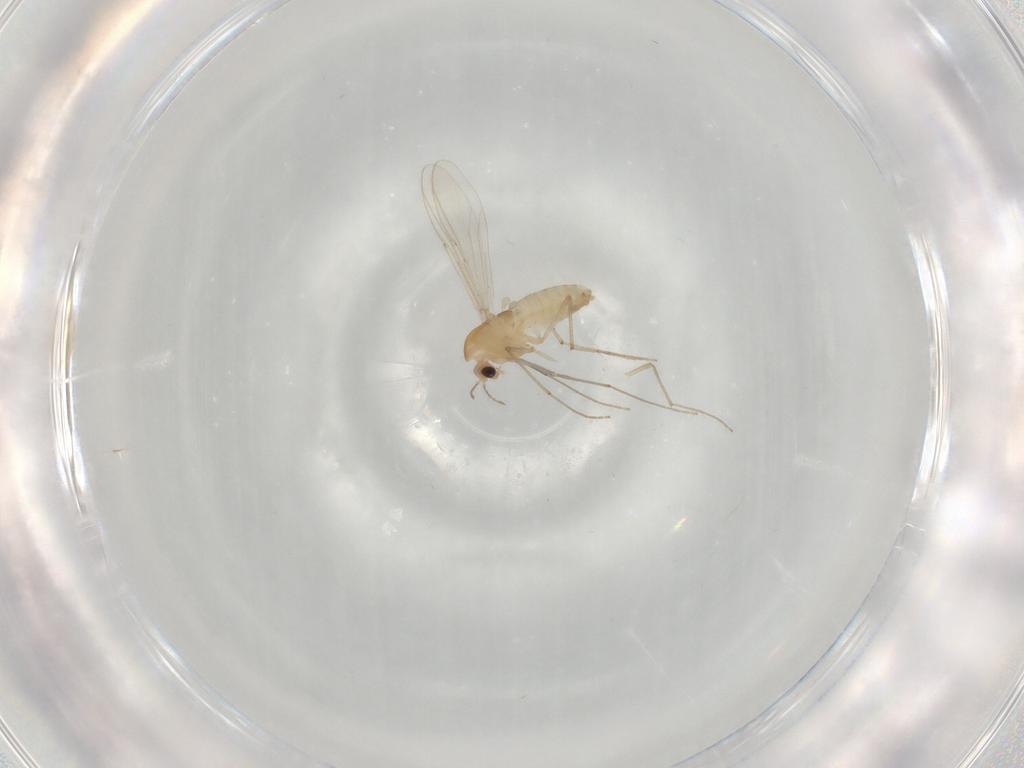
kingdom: Animalia
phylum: Arthropoda
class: Insecta
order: Diptera
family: Chironomidae
